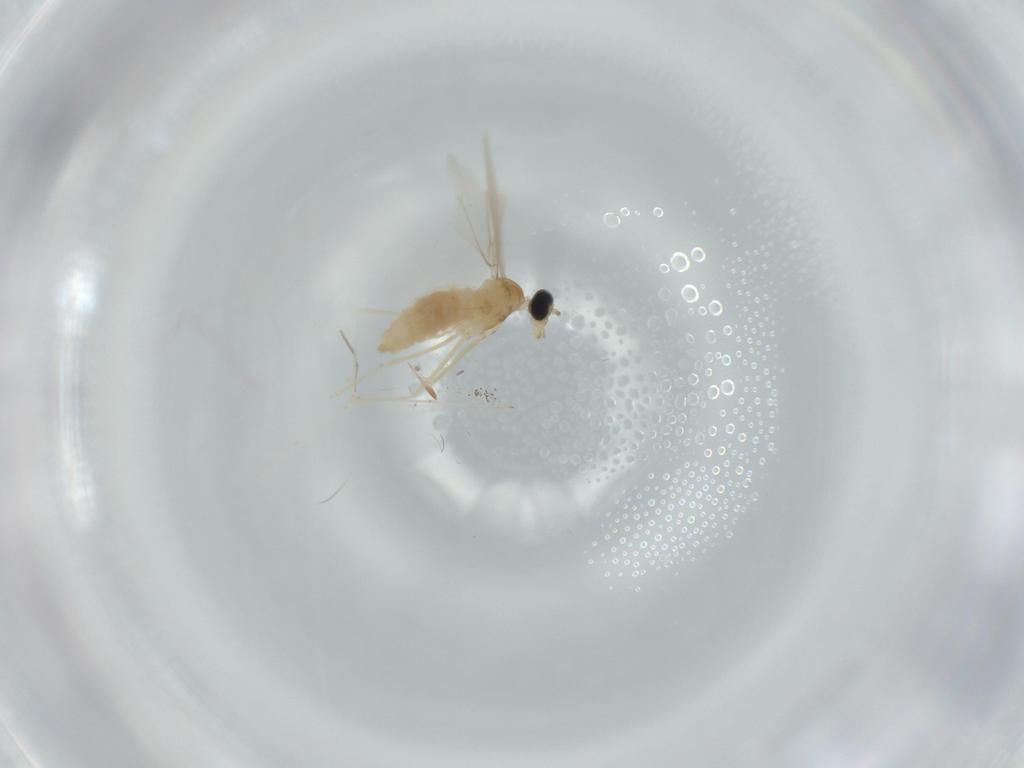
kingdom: Animalia
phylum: Arthropoda
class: Insecta
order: Diptera
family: Cecidomyiidae
